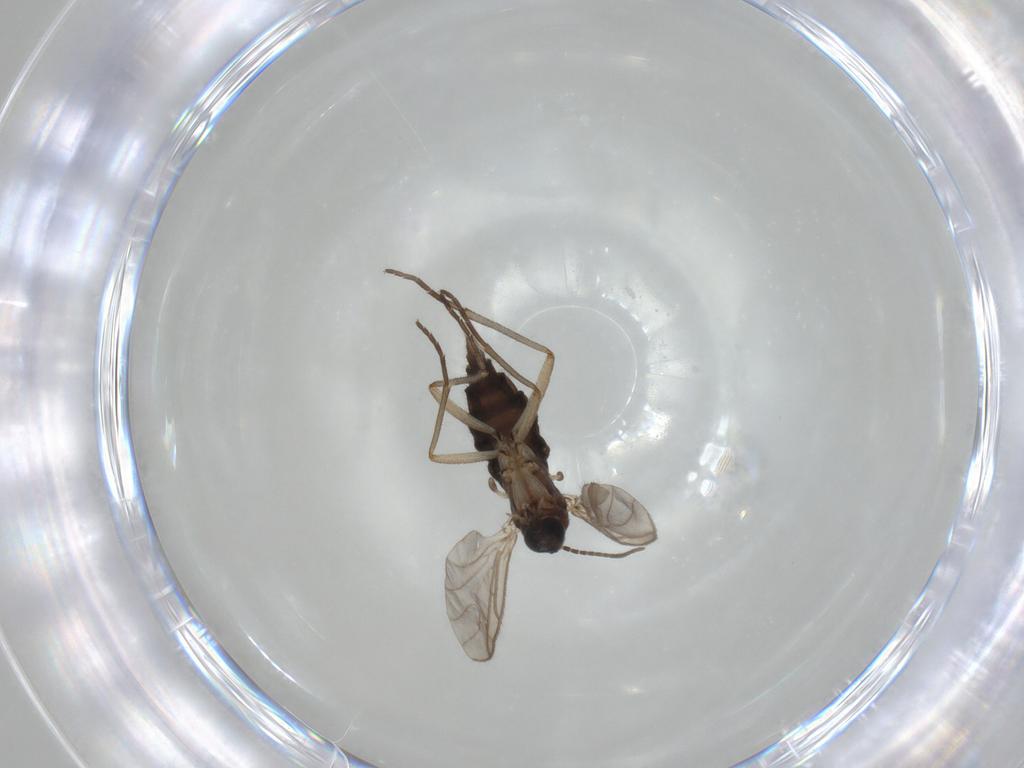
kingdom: Animalia
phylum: Arthropoda
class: Insecta
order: Diptera
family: Sciaridae
